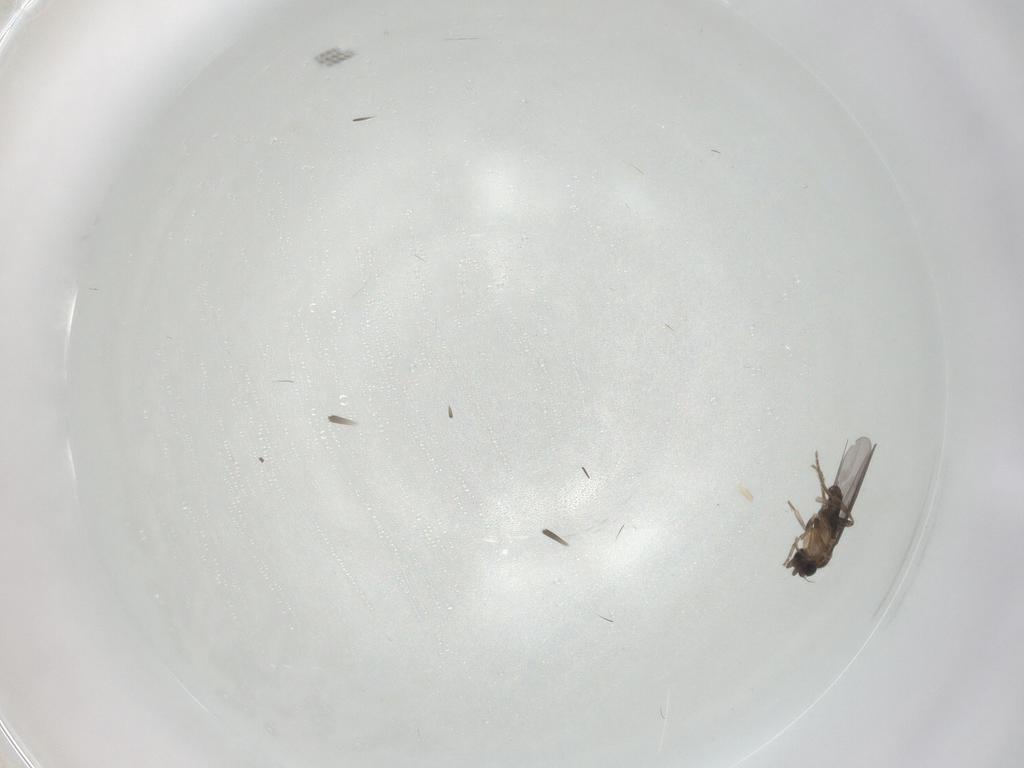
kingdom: Animalia
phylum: Arthropoda
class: Insecta
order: Diptera
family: Sciaridae
